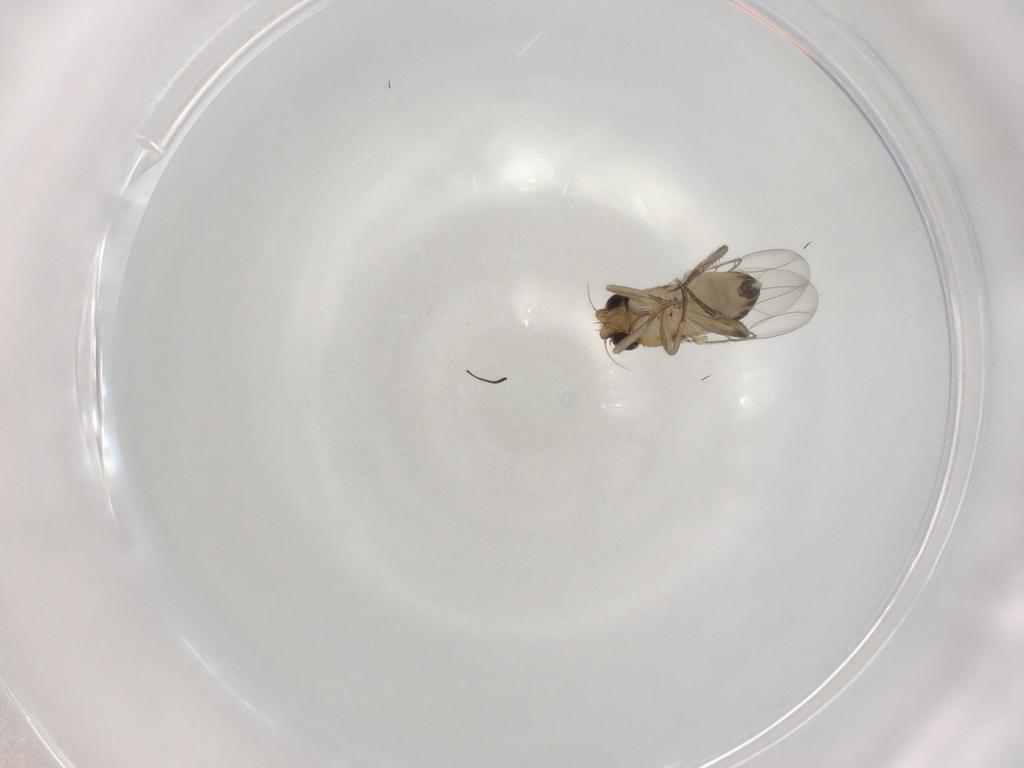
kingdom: Animalia
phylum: Arthropoda
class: Insecta
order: Diptera
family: Phoridae
